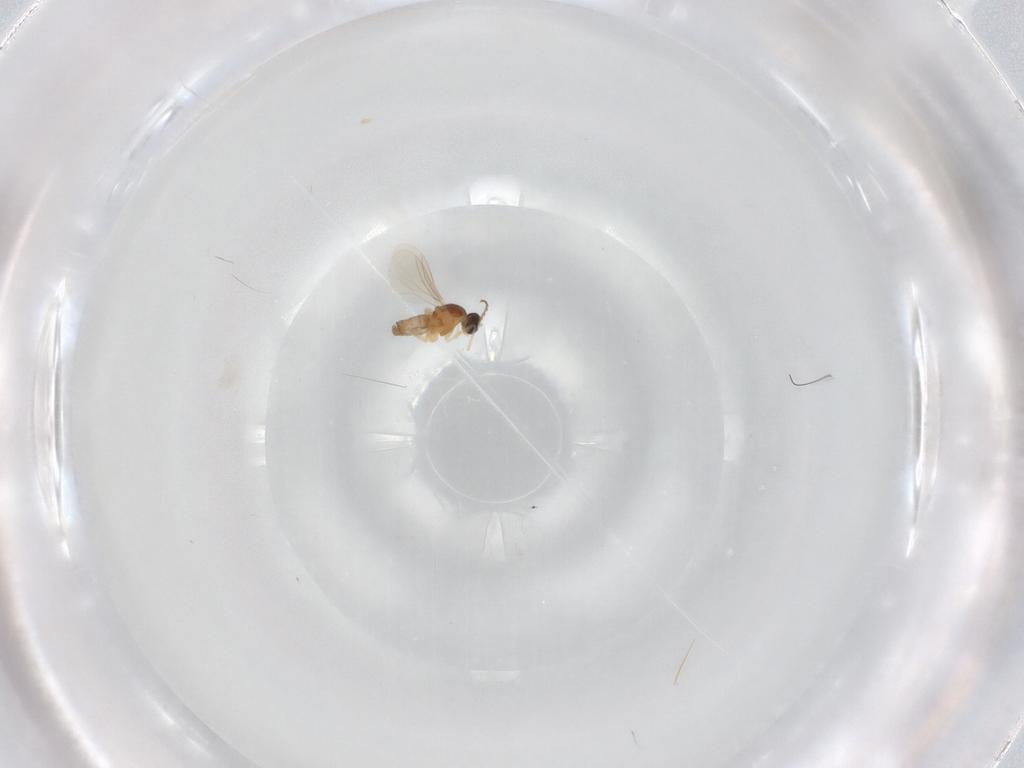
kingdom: Animalia
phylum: Arthropoda
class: Insecta
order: Diptera
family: Cecidomyiidae
